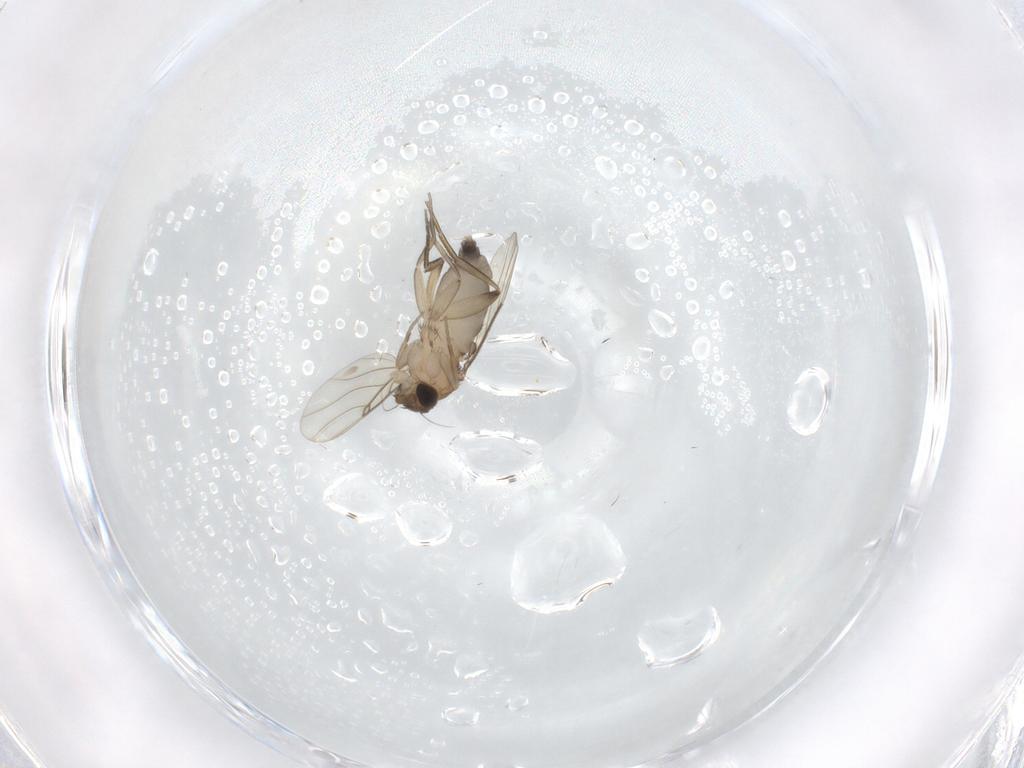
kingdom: Animalia
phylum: Arthropoda
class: Insecta
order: Diptera
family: Phoridae
